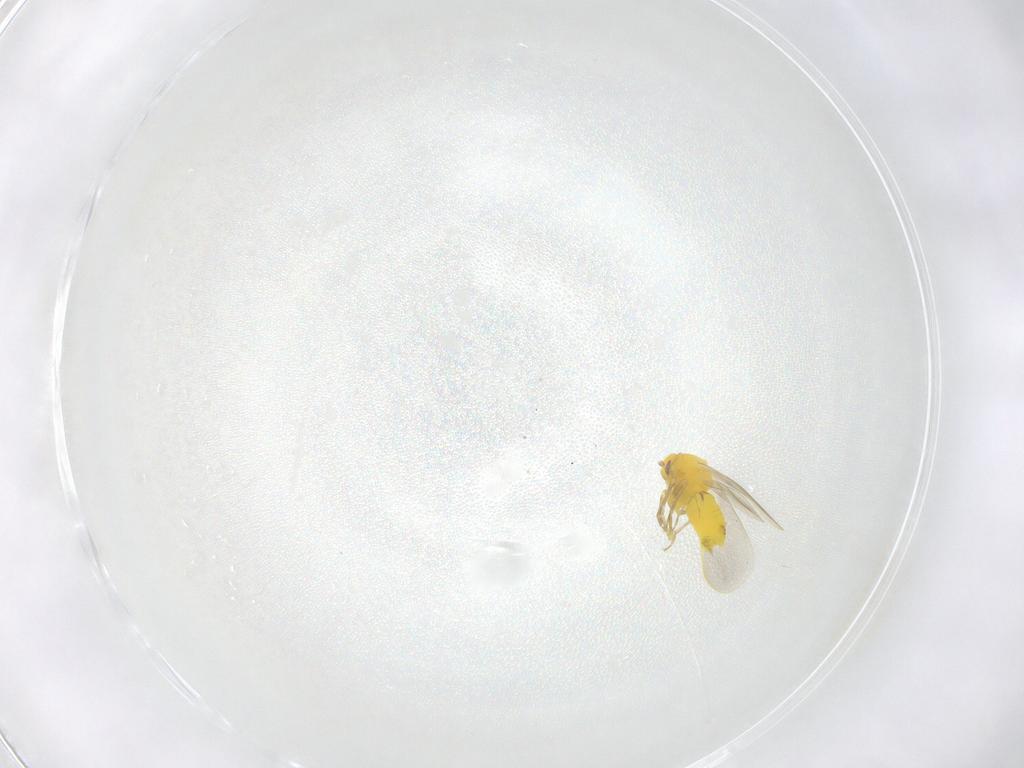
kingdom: Animalia
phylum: Arthropoda
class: Insecta
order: Hemiptera
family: Aleyrodidae
